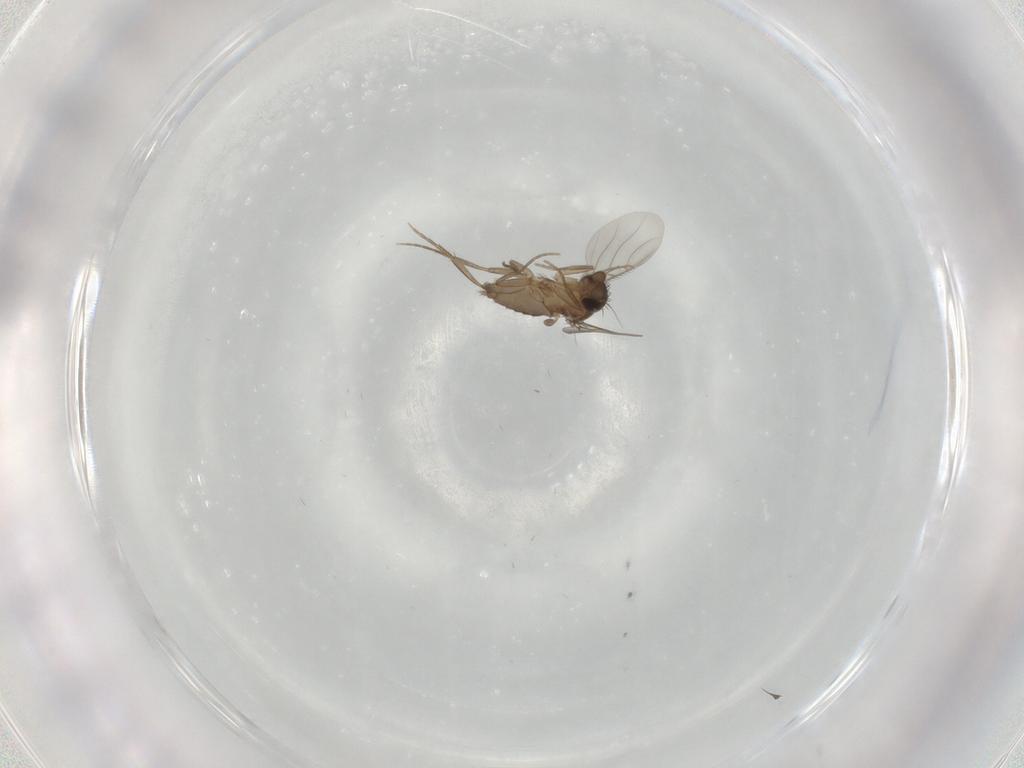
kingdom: Animalia
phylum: Arthropoda
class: Insecta
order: Diptera
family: Phoridae
